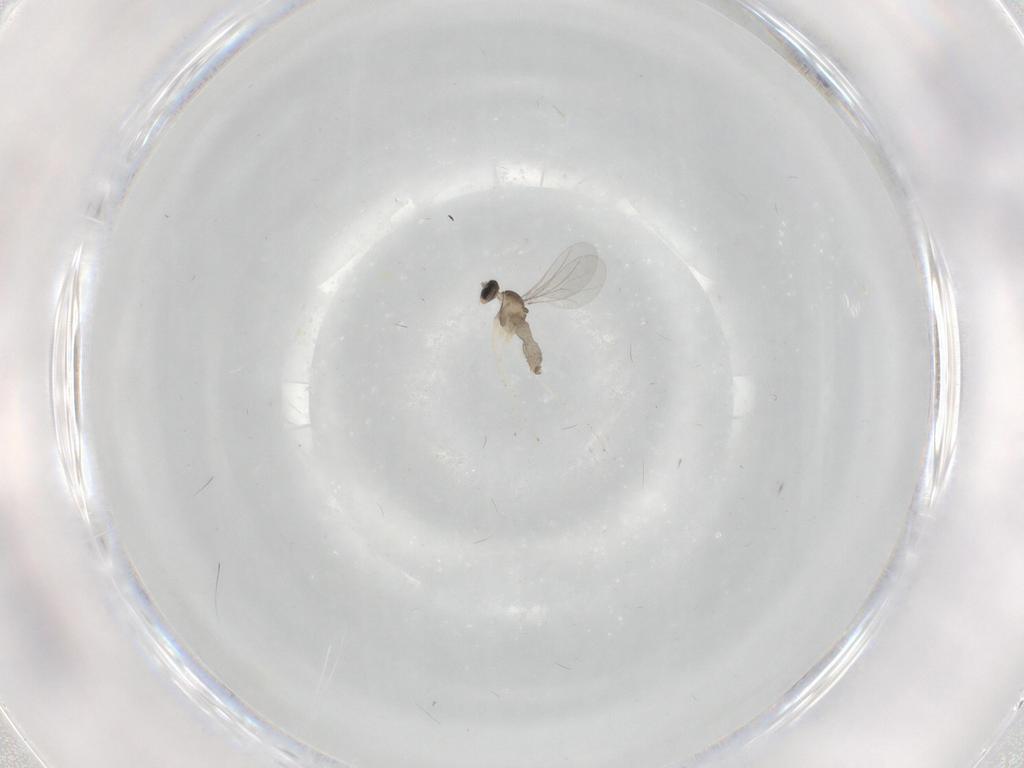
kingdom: Animalia
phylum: Arthropoda
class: Insecta
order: Diptera
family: Cecidomyiidae
